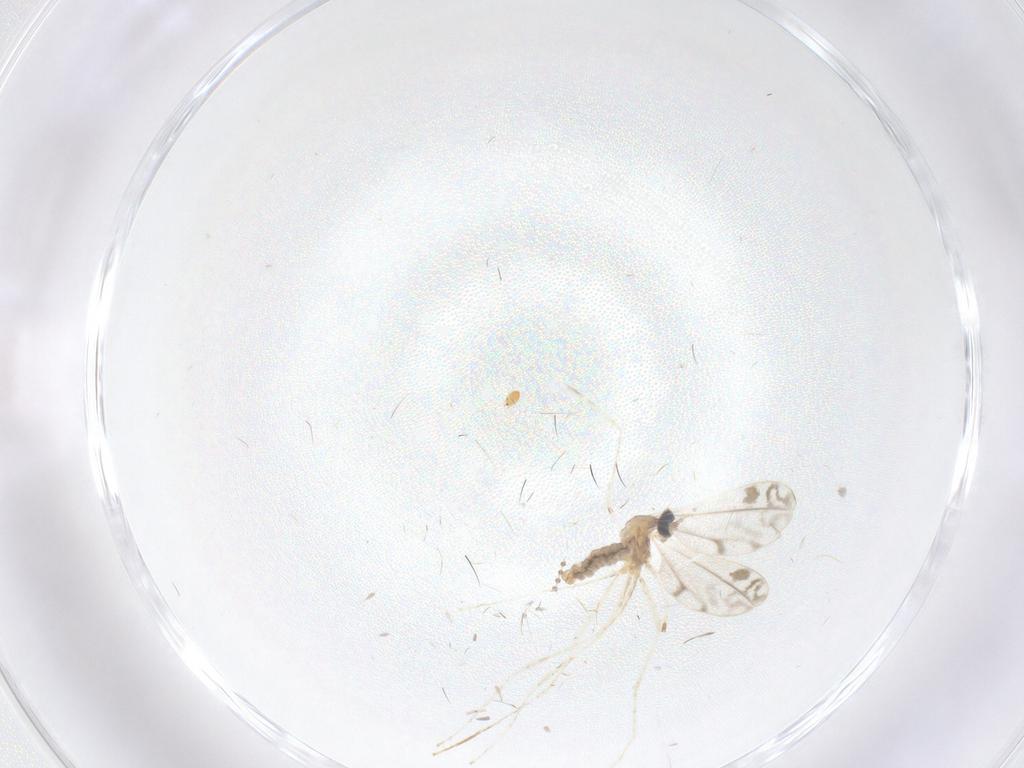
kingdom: Animalia
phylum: Arthropoda
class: Insecta
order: Diptera
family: Cecidomyiidae
